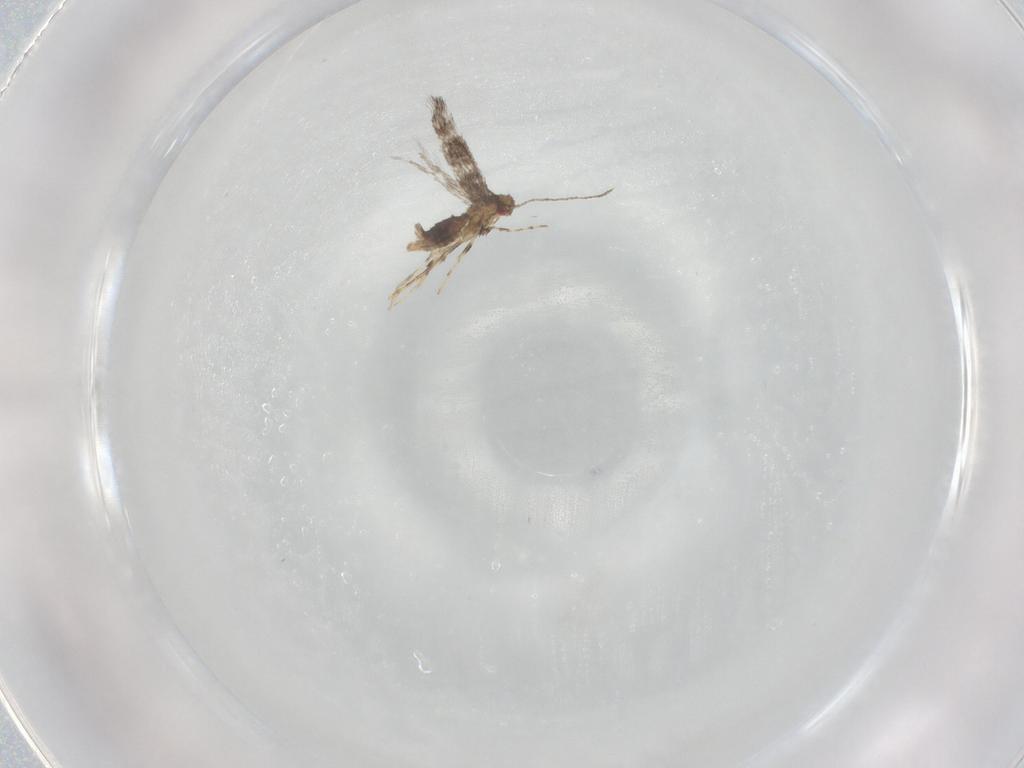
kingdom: Animalia
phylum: Arthropoda
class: Insecta
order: Lepidoptera
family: Gracillariidae
